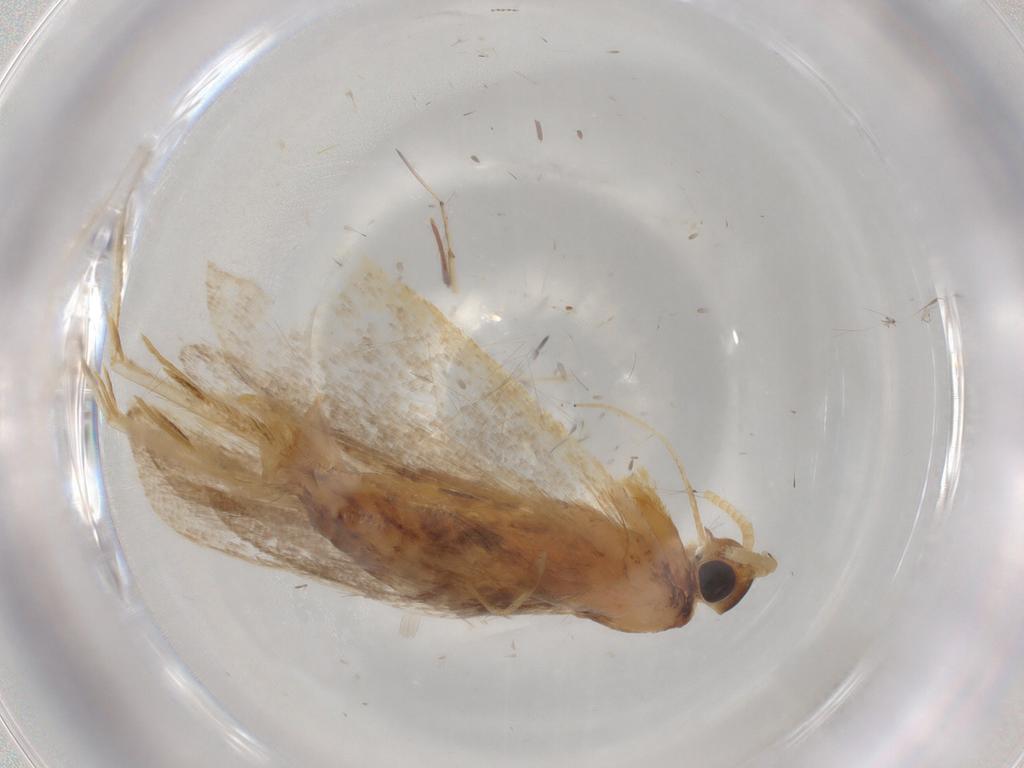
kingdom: Animalia
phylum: Arthropoda
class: Insecta
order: Lepidoptera
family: Lecithoceridae
